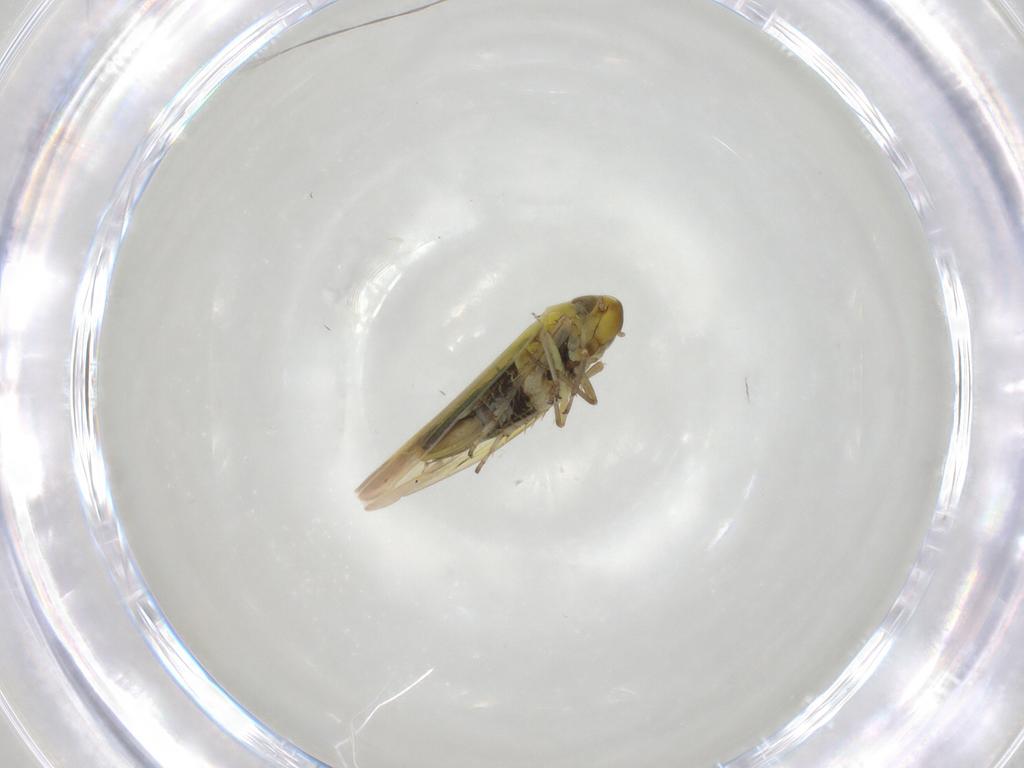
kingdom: Animalia
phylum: Arthropoda
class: Insecta
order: Hemiptera
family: Cicadellidae
